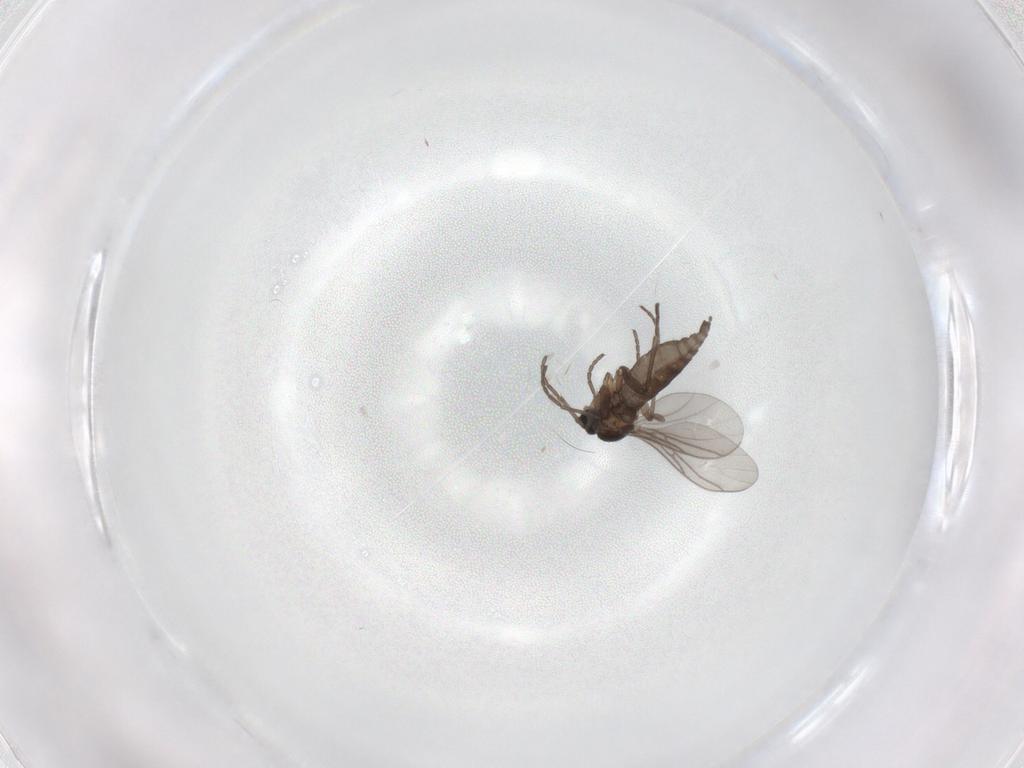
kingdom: Animalia
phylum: Arthropoda
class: Insecta
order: Diptera
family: Sciaridae
